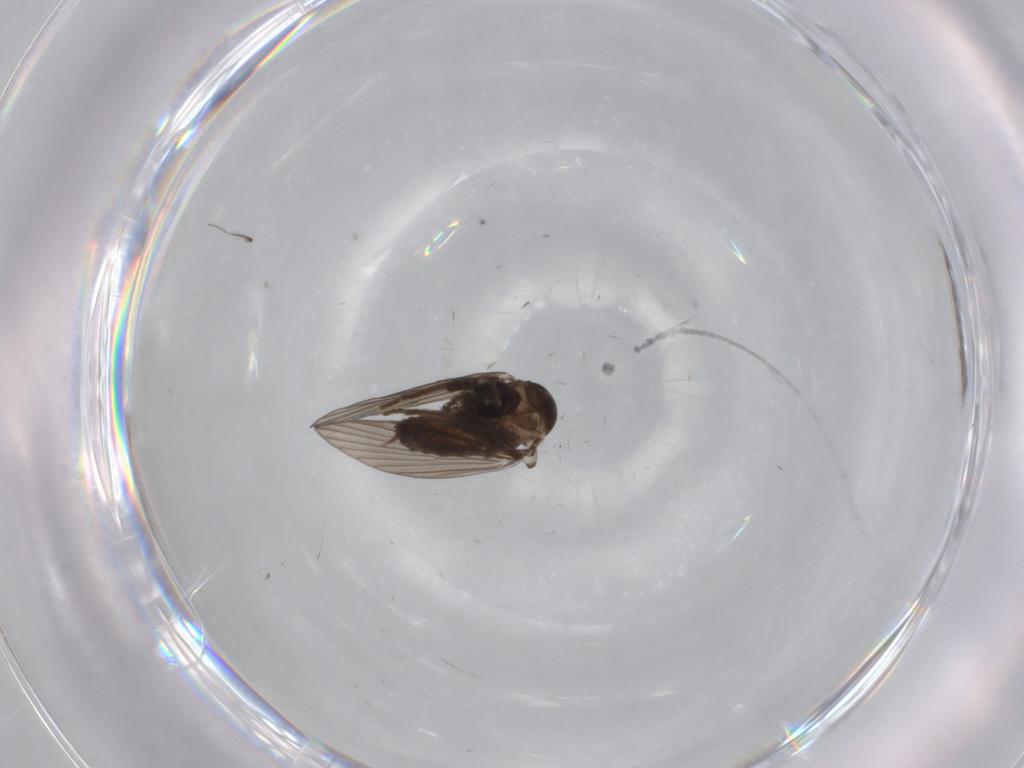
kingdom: Animalia
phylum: Arthropoda
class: Insecta
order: Diptera
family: Psychodidae
